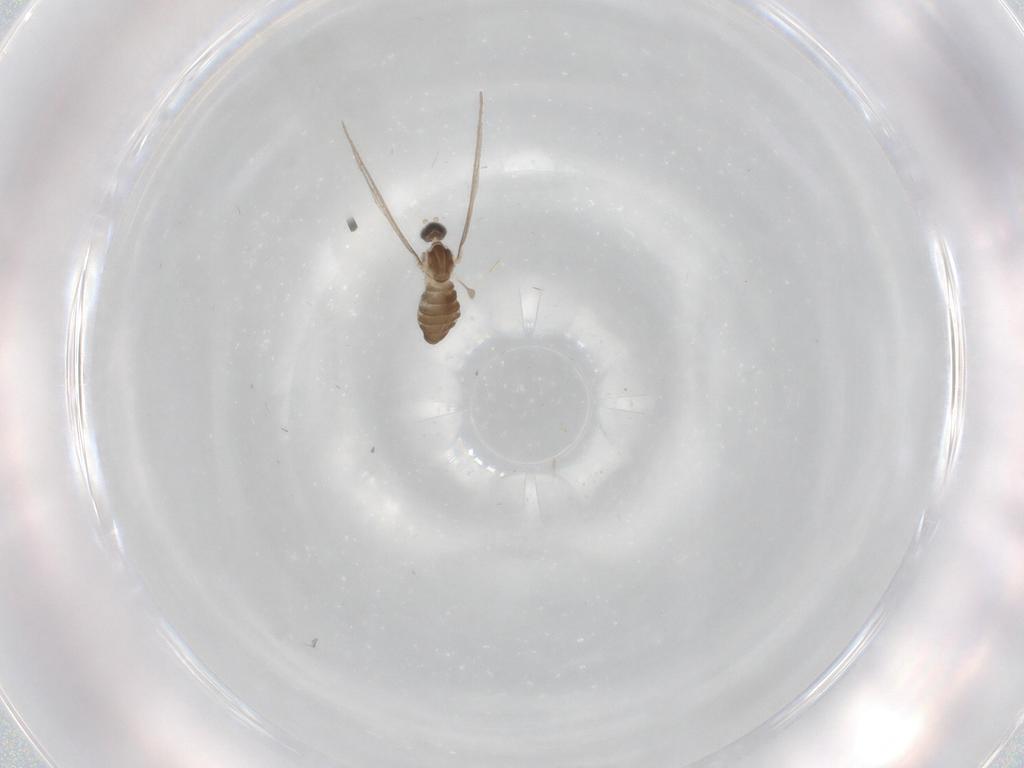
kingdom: Animalia
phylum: Arthropoda
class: Insecta
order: Diptera
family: Cecidomyiidae
